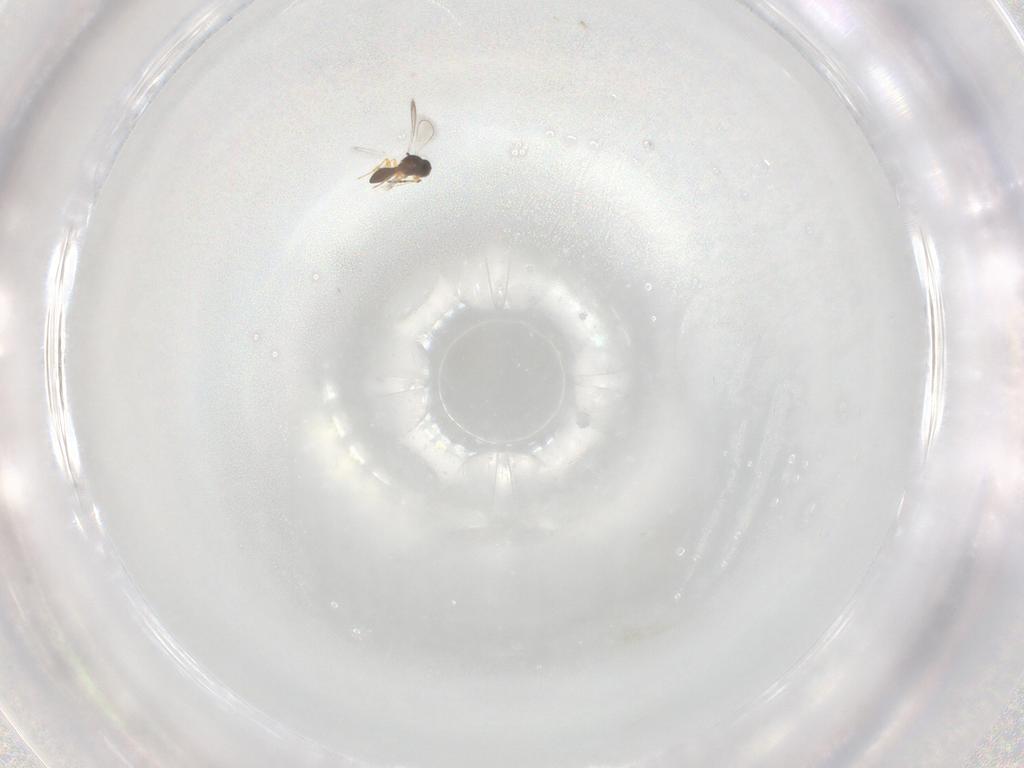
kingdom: Animalia
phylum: Arthropoda
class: Insecta
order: Hymenoptera
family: Platygastridae
